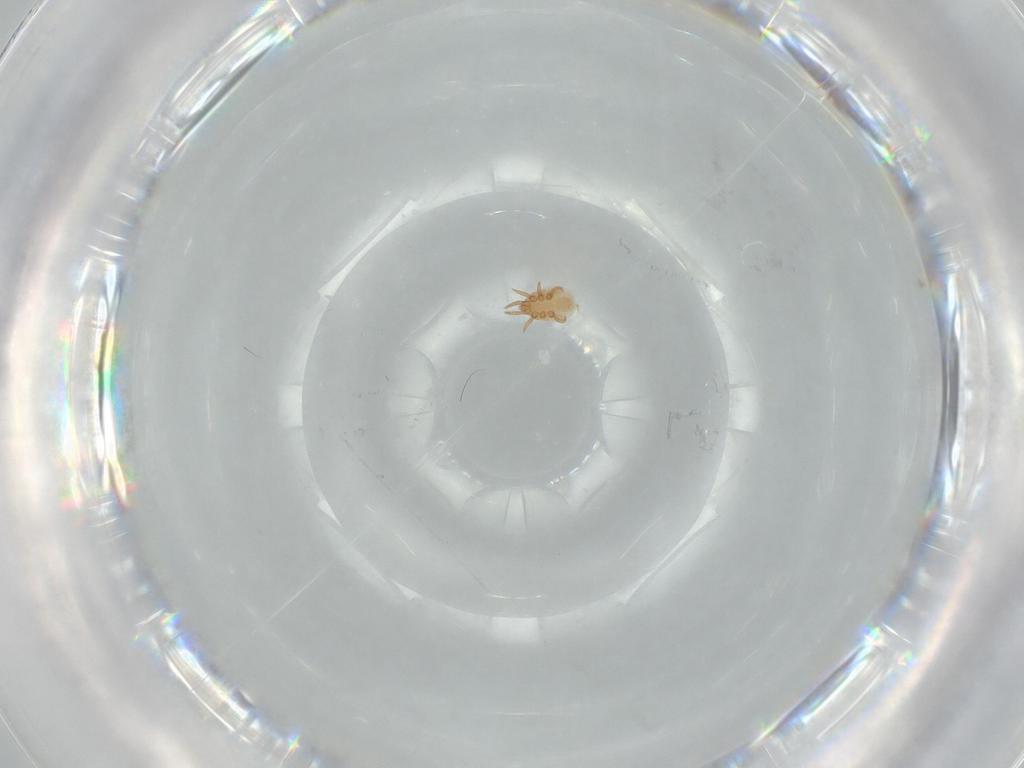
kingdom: Animalia
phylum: Arthropoda
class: Arachnida
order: Mesostigmata
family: Dinychidae
